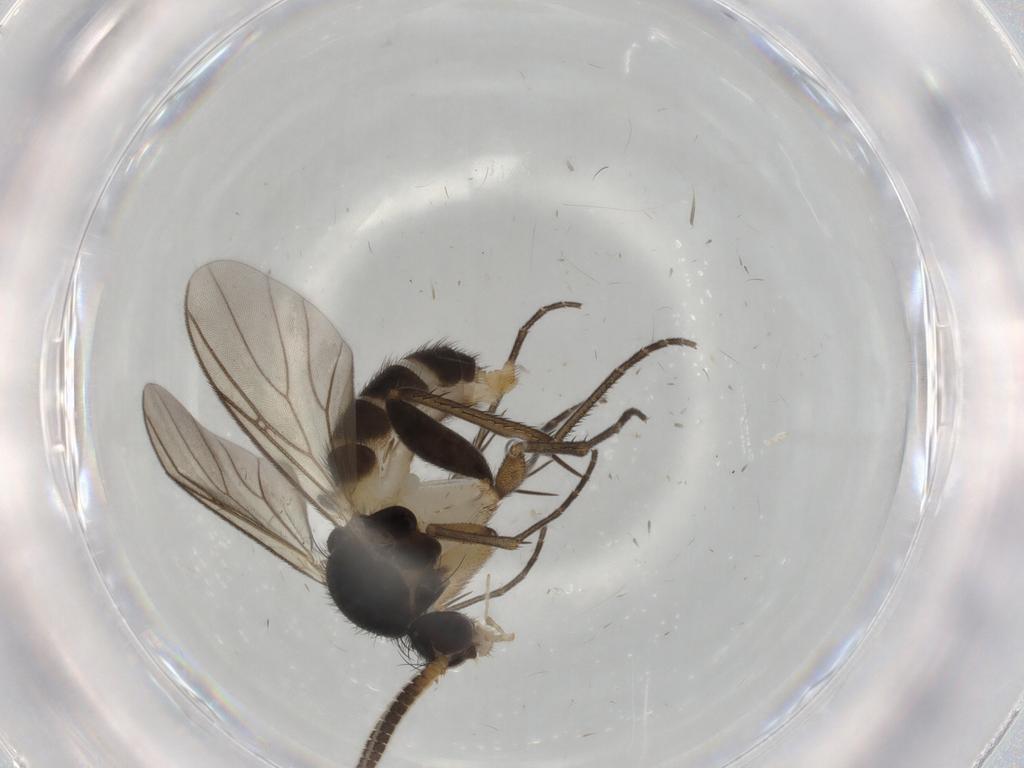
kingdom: Animalia
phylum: Arthropoda
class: Insecta
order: Diptera
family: Mycetophilidae
